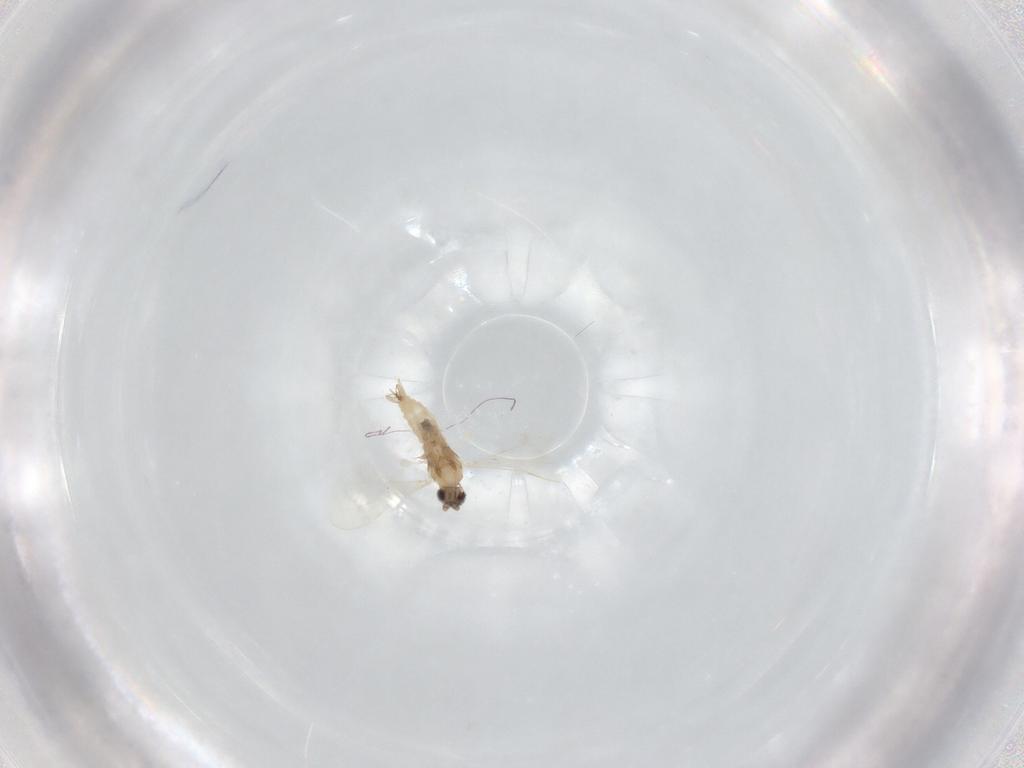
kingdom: Animalia
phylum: Arthropoda
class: Insecta
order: Diptera
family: Cecidomyiidae
